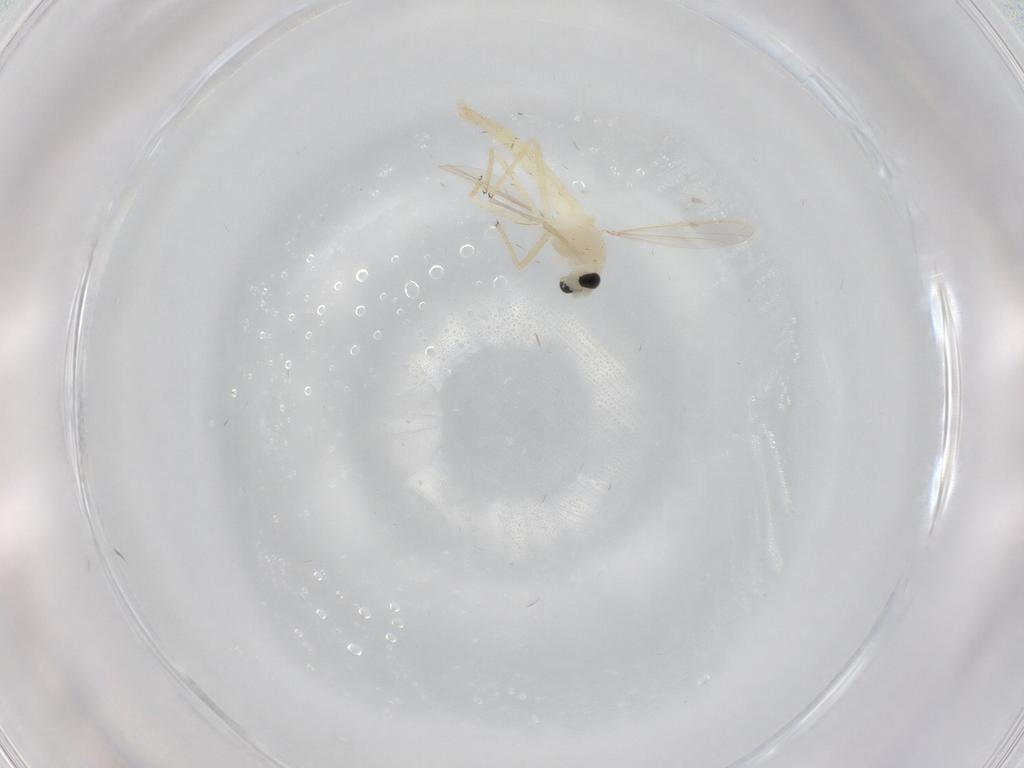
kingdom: Animalia
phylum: Arthropoda
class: Insecta
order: Diptera
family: Chironomidae
